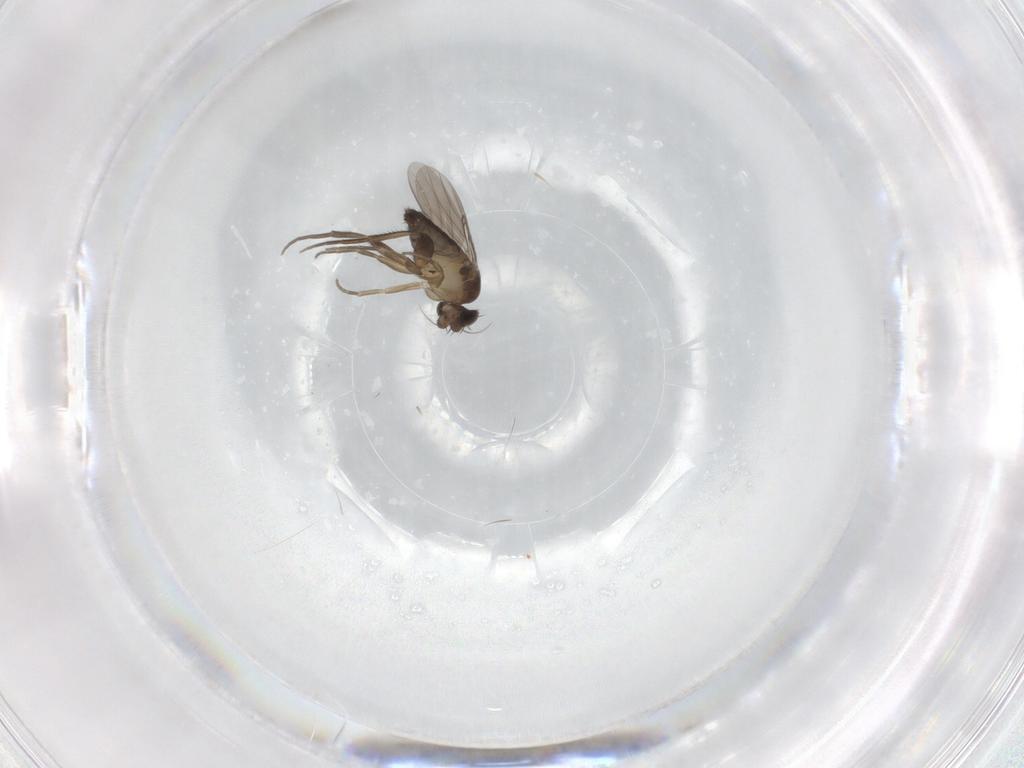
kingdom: Animalia
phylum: Arthropoda
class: Insecta
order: Diptera
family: Phoridae
